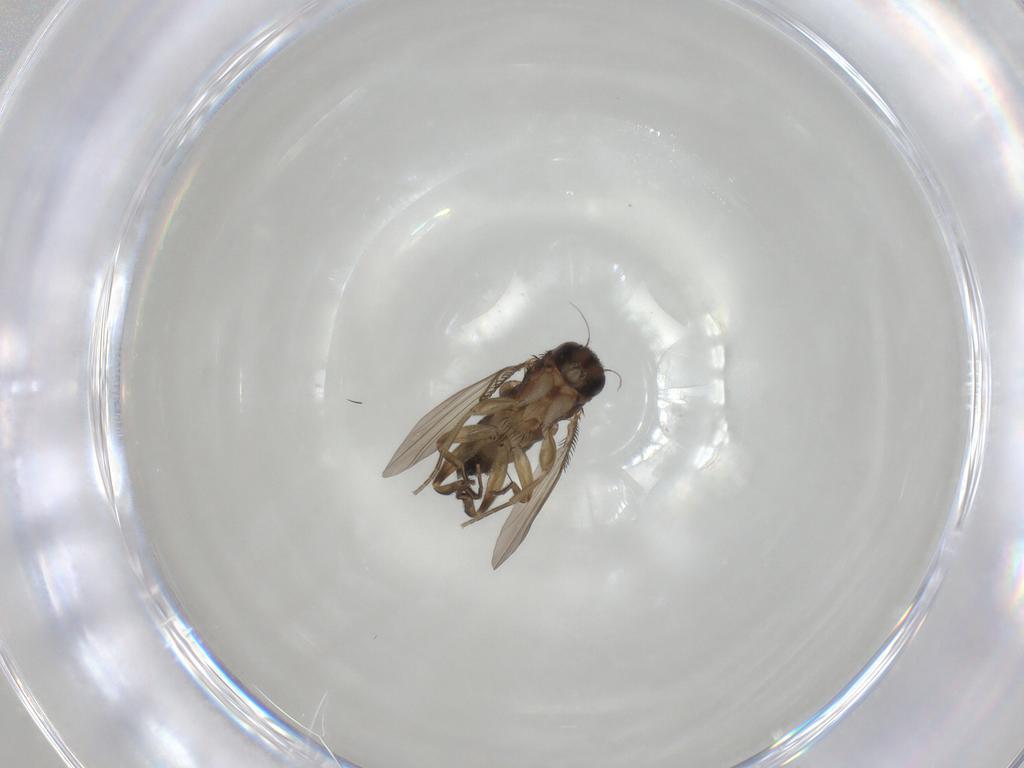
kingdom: Animalia
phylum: Arthropoda
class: Insecta
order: Diptera
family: Phoridae
